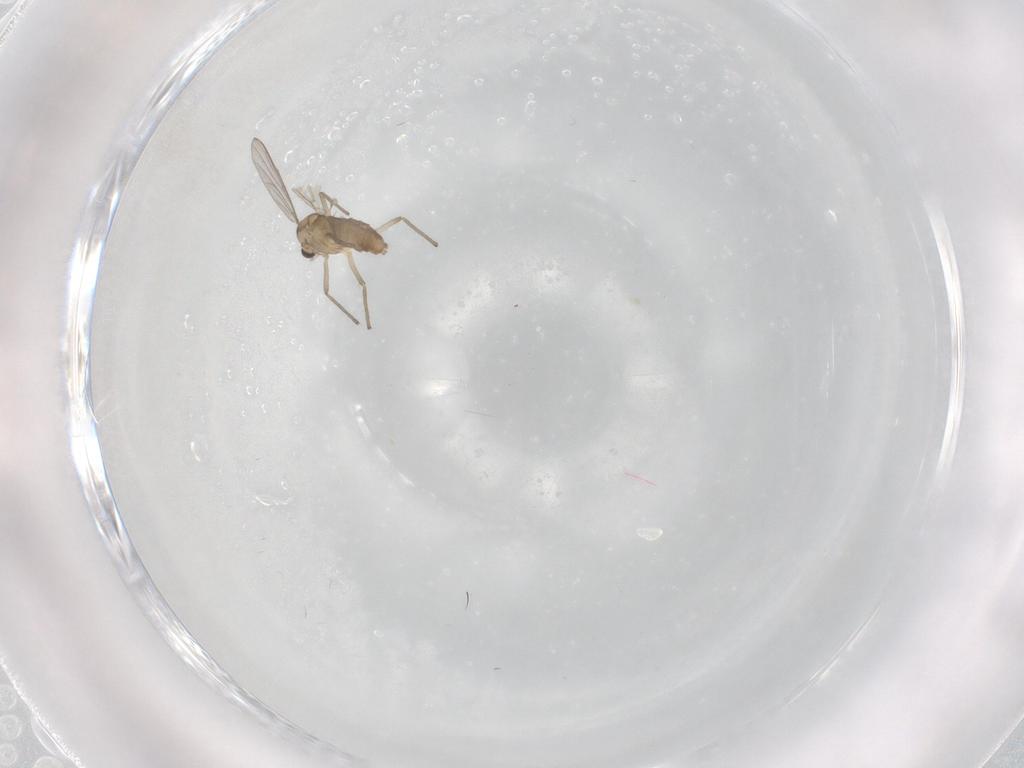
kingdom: Animalia
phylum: Arthropoda
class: Insecta
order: Diptera
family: Chironomidae
